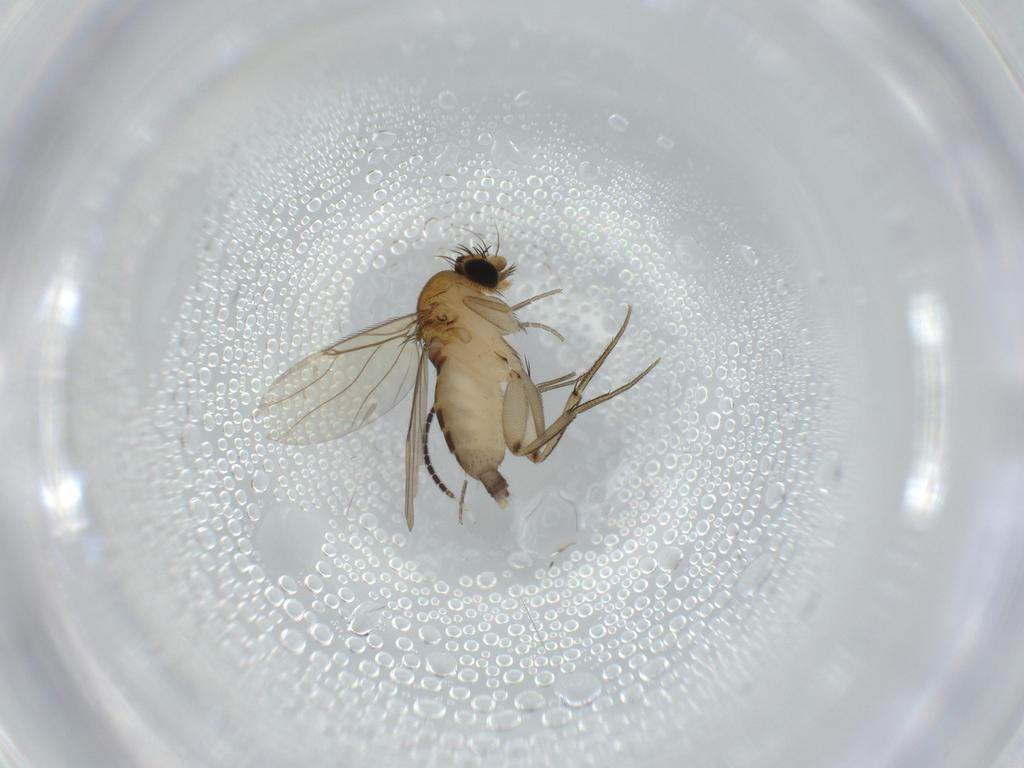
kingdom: Animalia
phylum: Arthropoda
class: Insecta
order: Diptera
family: Phoridae
